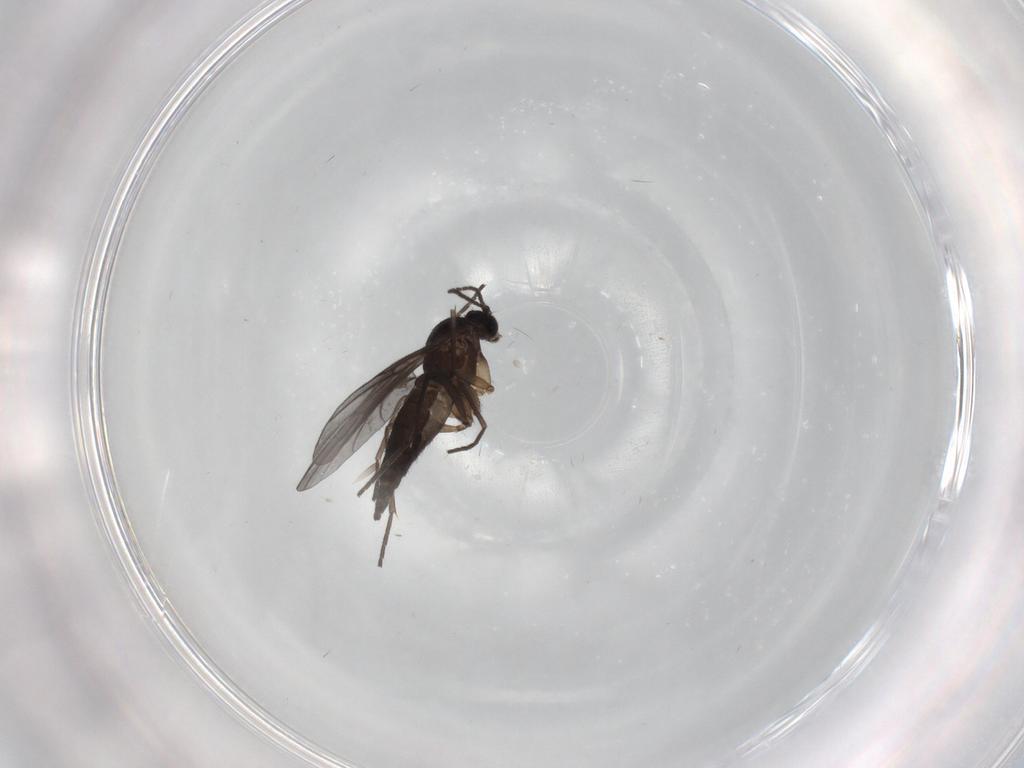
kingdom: Animalia
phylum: Arthropoda
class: Insecta
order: Diptera
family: Sciaridae
